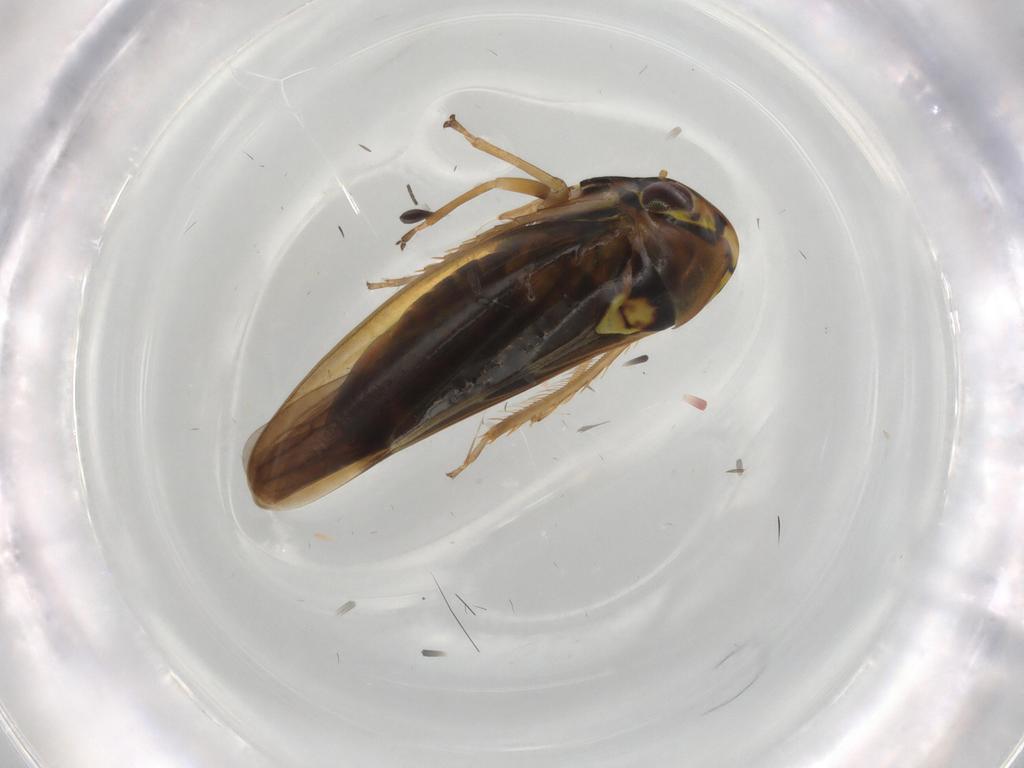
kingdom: Animalia
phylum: Arthropoda
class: Insecta
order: Hemiptera
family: Cicadellidae
